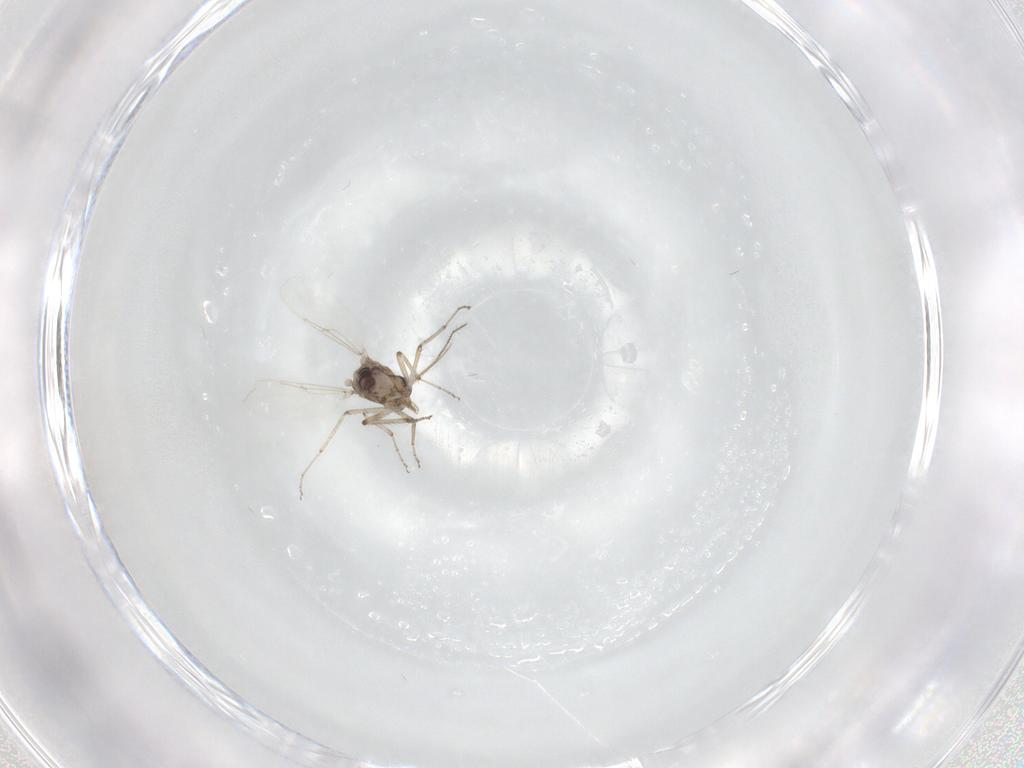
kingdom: Animalia
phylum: Arthropoda
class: Insecta
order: Diptera
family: Ceratopogonidae
